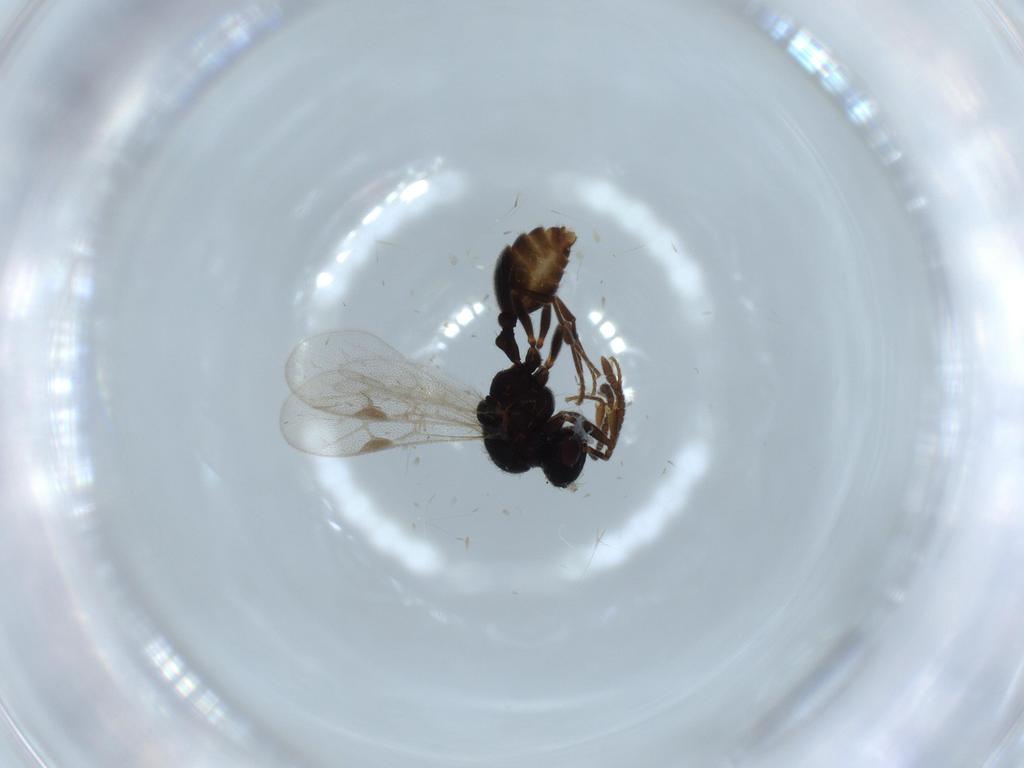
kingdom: Animalia
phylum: Arthropoda
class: Insecta
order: Hymenoptera
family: Formicidae
